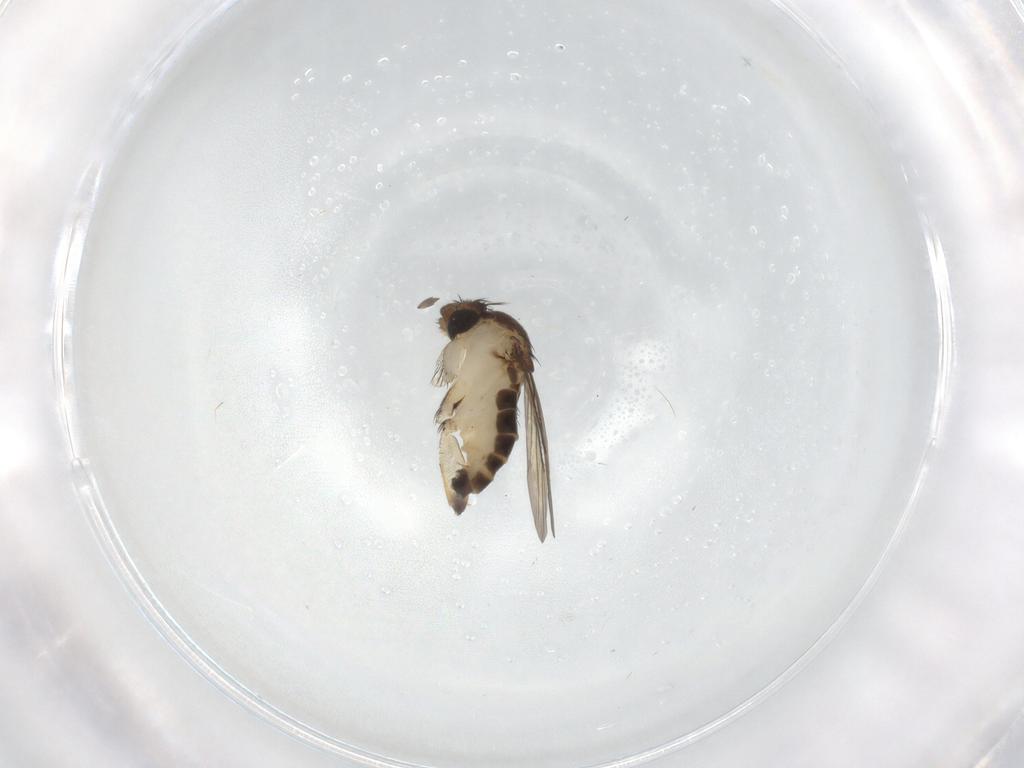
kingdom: Animalia
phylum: Arthropoda
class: Insecta
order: Diptera
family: Phoridae
